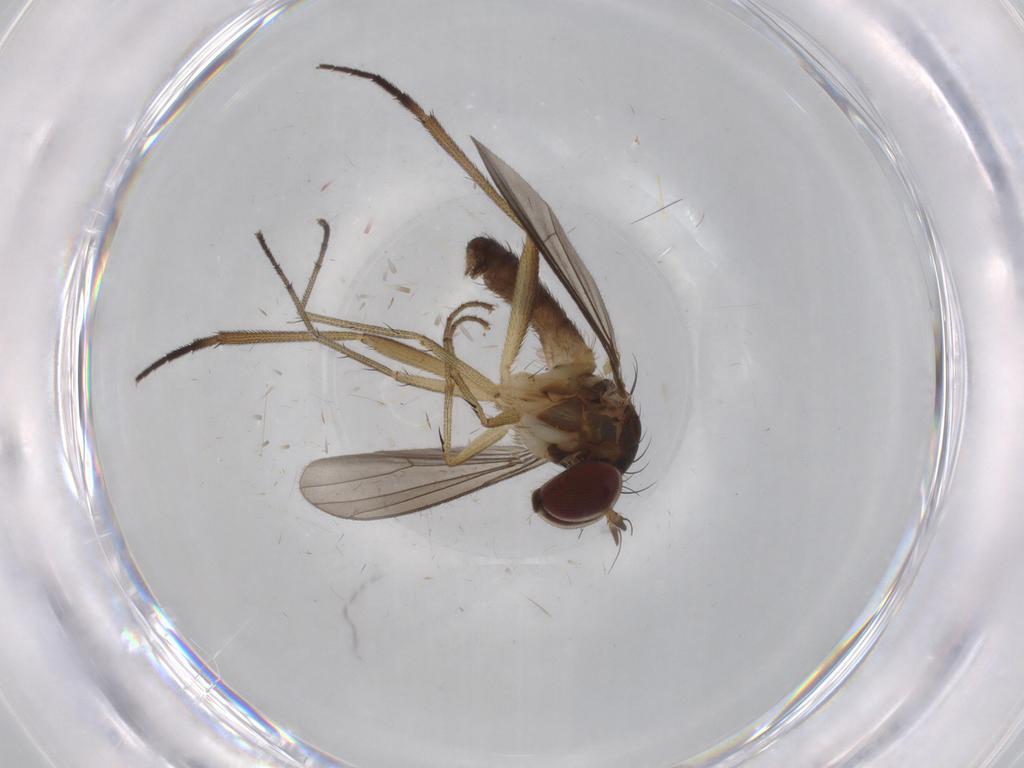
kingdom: Animalia
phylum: Arthropoda
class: Insecta
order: Diptera
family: Dolichopodidae
